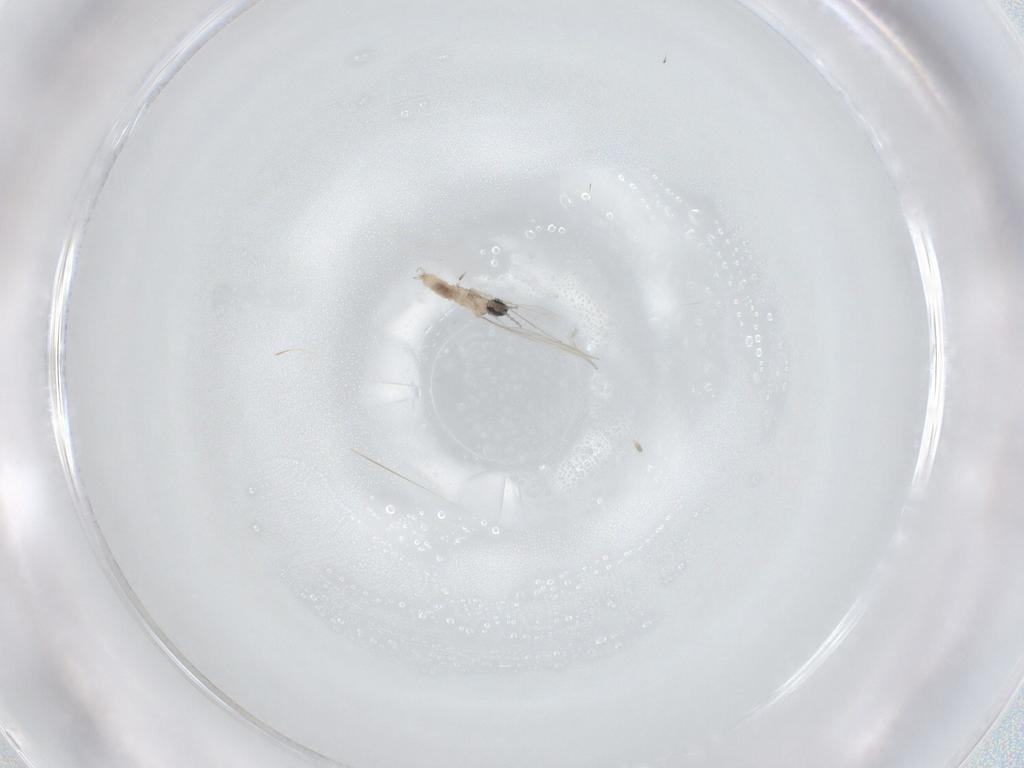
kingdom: Animalia
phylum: Arthropoda
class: Insecta
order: Diptera
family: Cecidomyiidae
